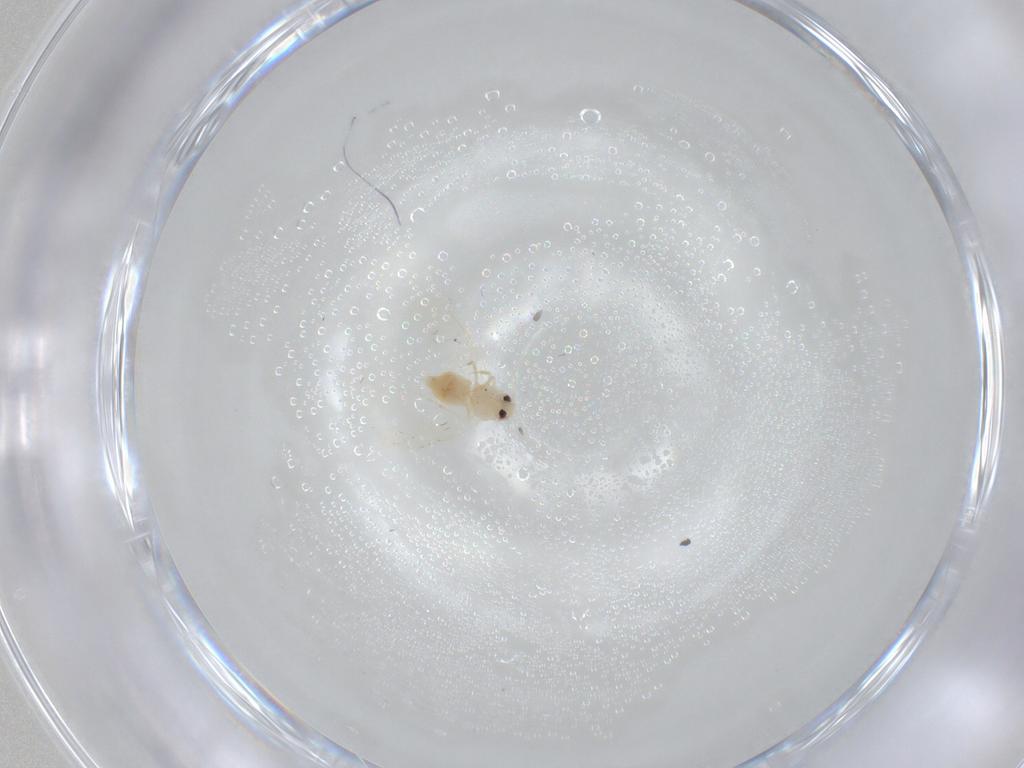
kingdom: Animalia
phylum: Arthropoda
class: Insecta
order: Hemiptera
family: Aleyrodidae
